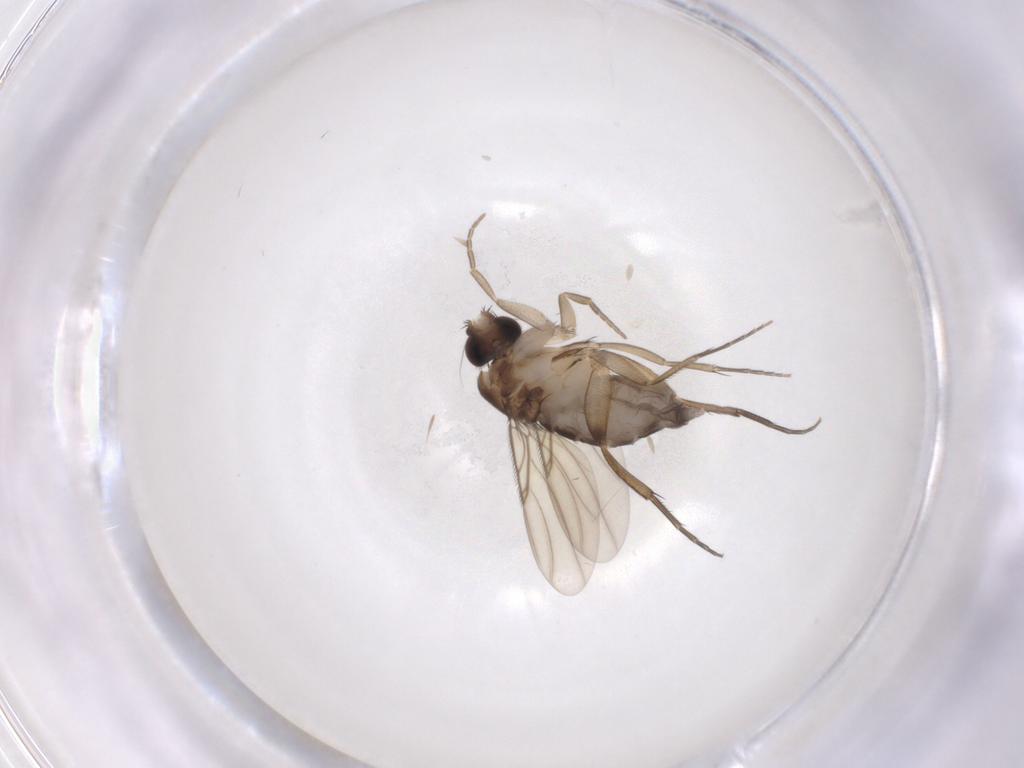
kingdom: Animalia
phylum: Arthropoda
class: Insecta
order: Diptera
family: Phoridae
